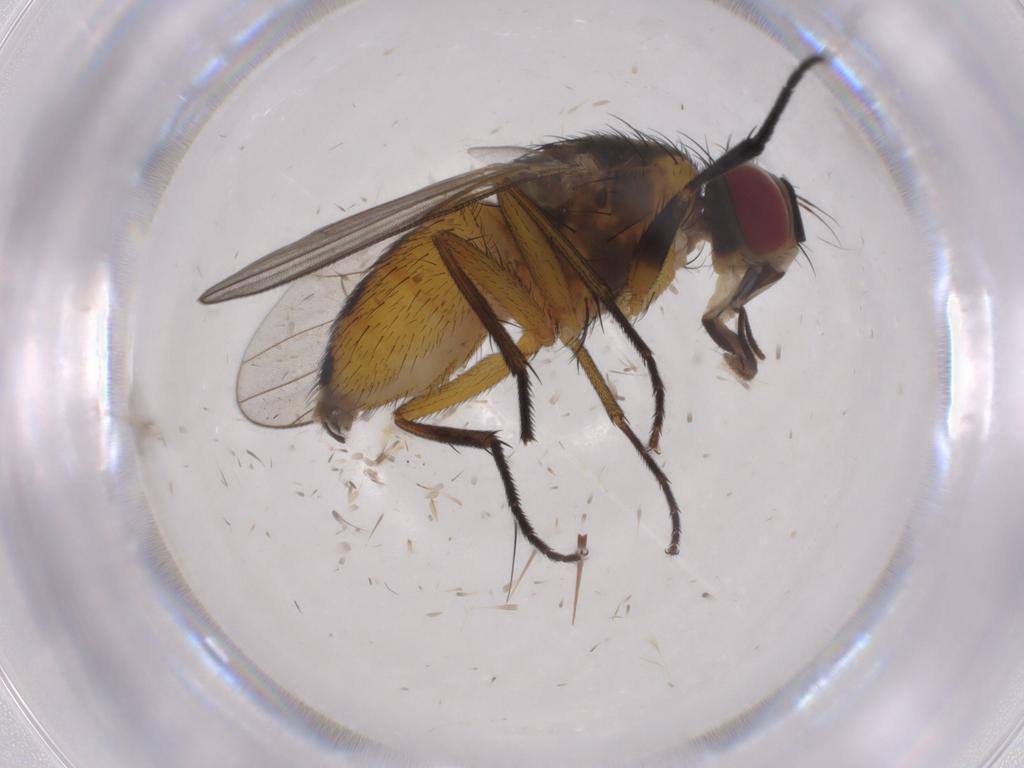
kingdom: Animalia
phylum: Arthropoda
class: Insecta
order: Diptera
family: Muscidae
